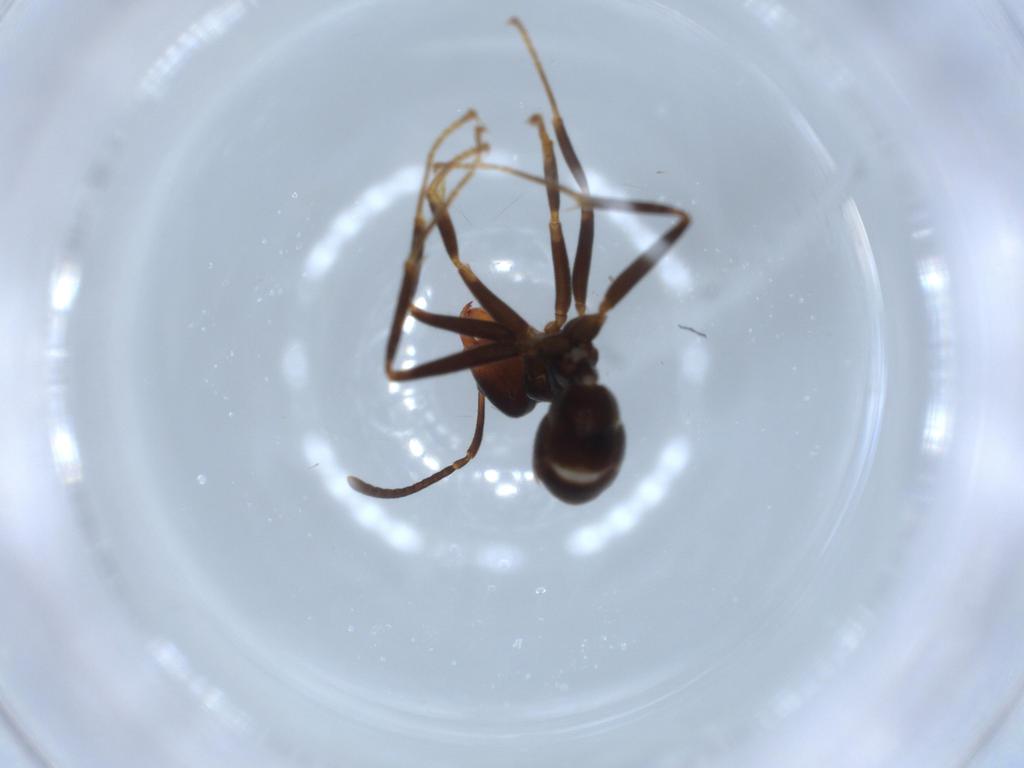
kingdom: Animalia
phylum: Arthropoda
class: Insecta
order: Hymenoptera
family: Formicidae
